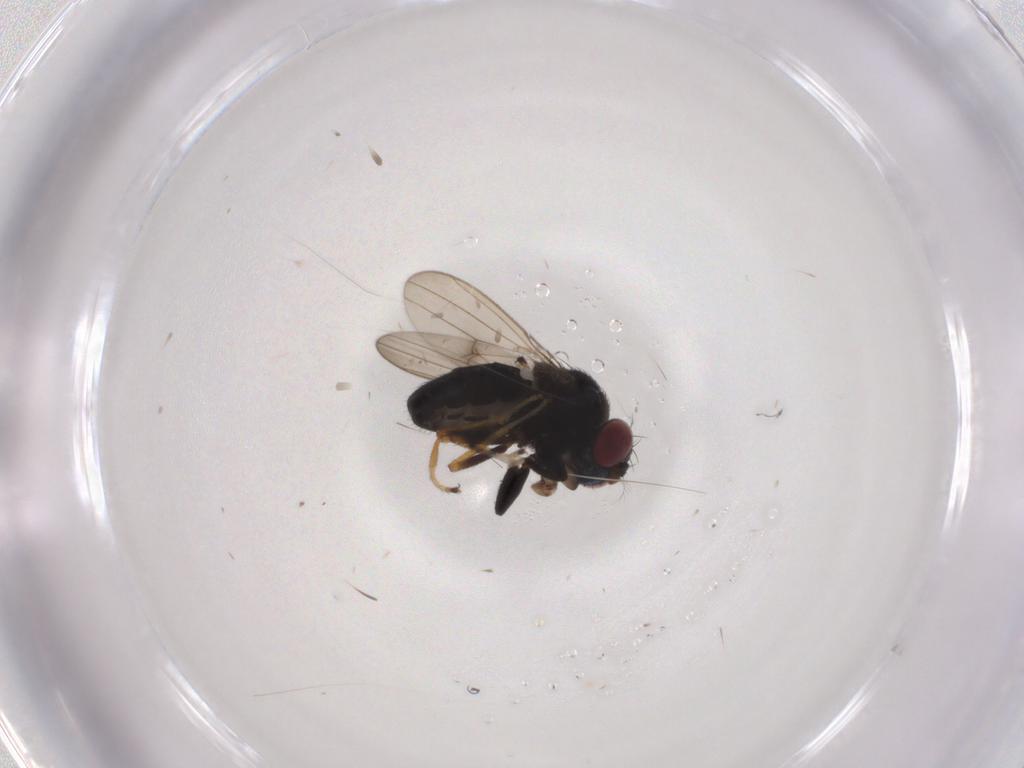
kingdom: Animalia
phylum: Arthropoda
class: Insecta
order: Diptera
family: Ephydridae
